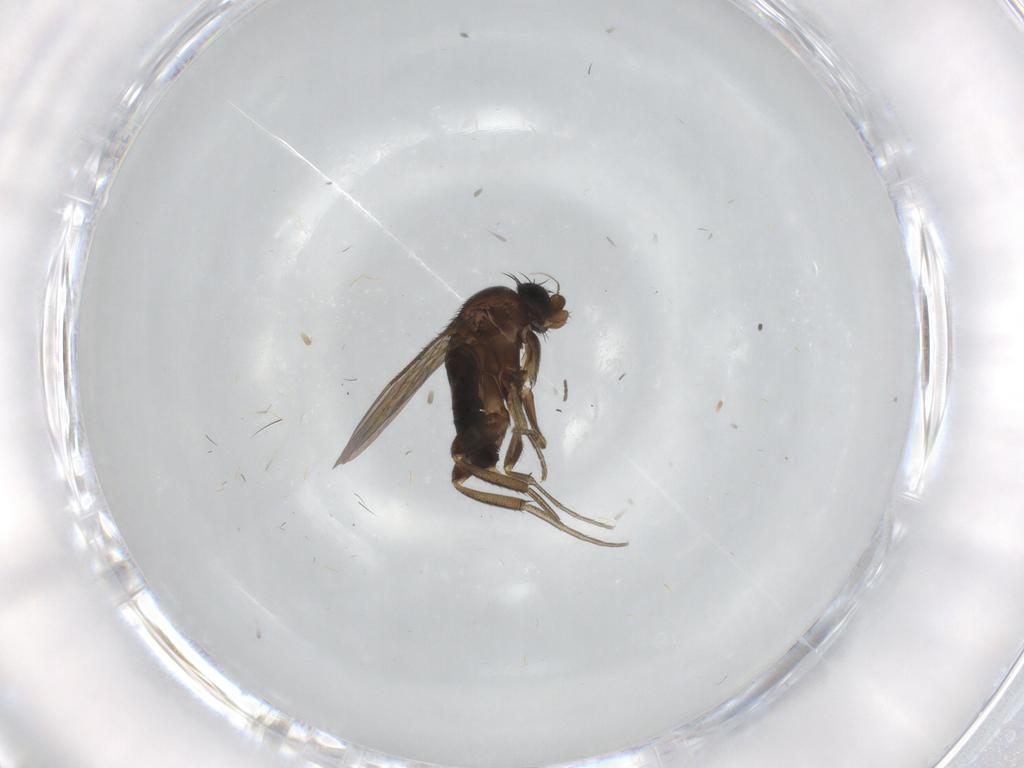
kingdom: Animalia
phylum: Arthropoda
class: Insecta
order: Diptera
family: Phoridae
